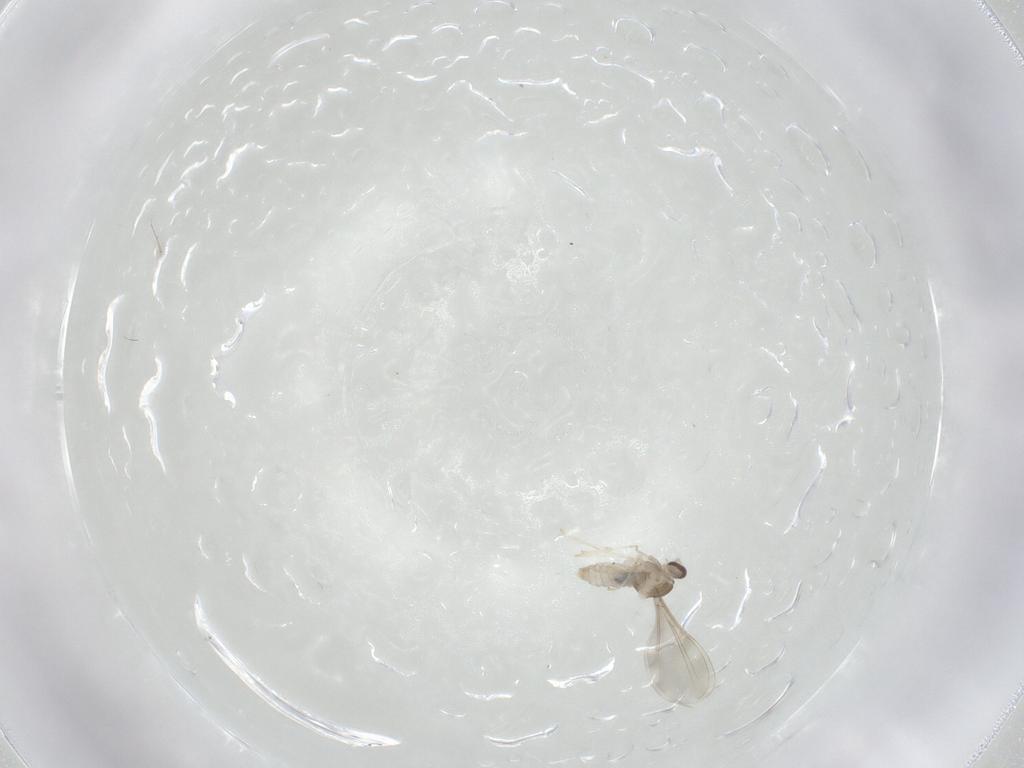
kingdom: Animalia
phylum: Arthropoda
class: Insecta
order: Diptera
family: Cecidomyiidae
